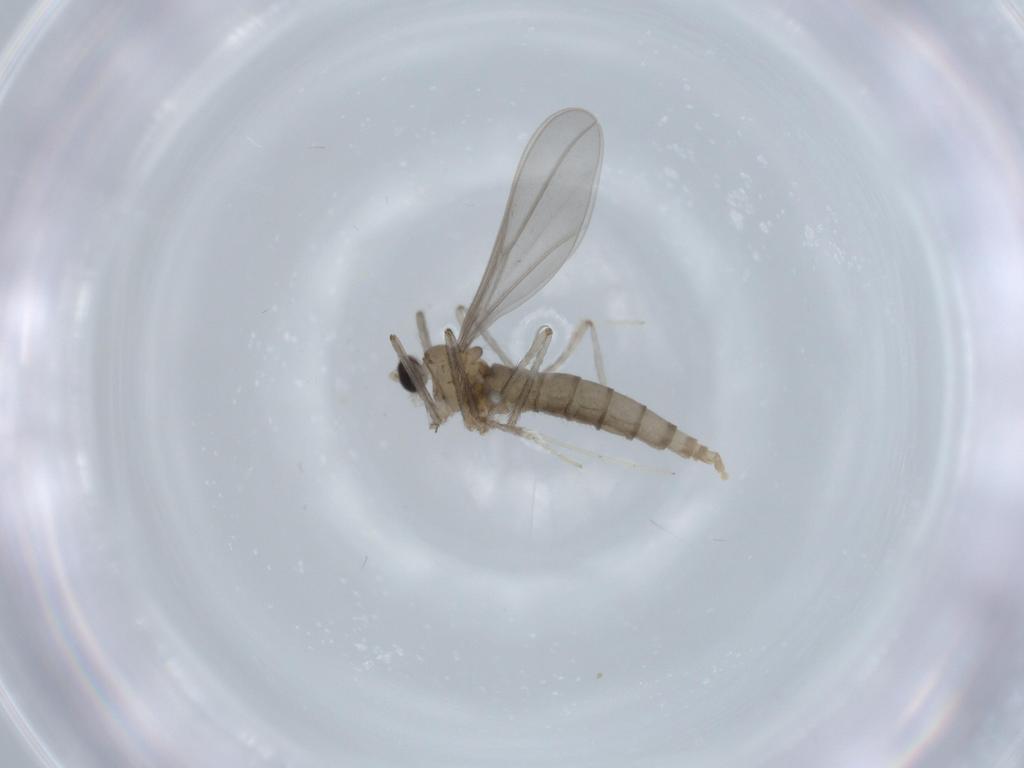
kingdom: Animalia
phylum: Arthropoda
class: Insecta
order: Diptera
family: Cecidomyiidae
